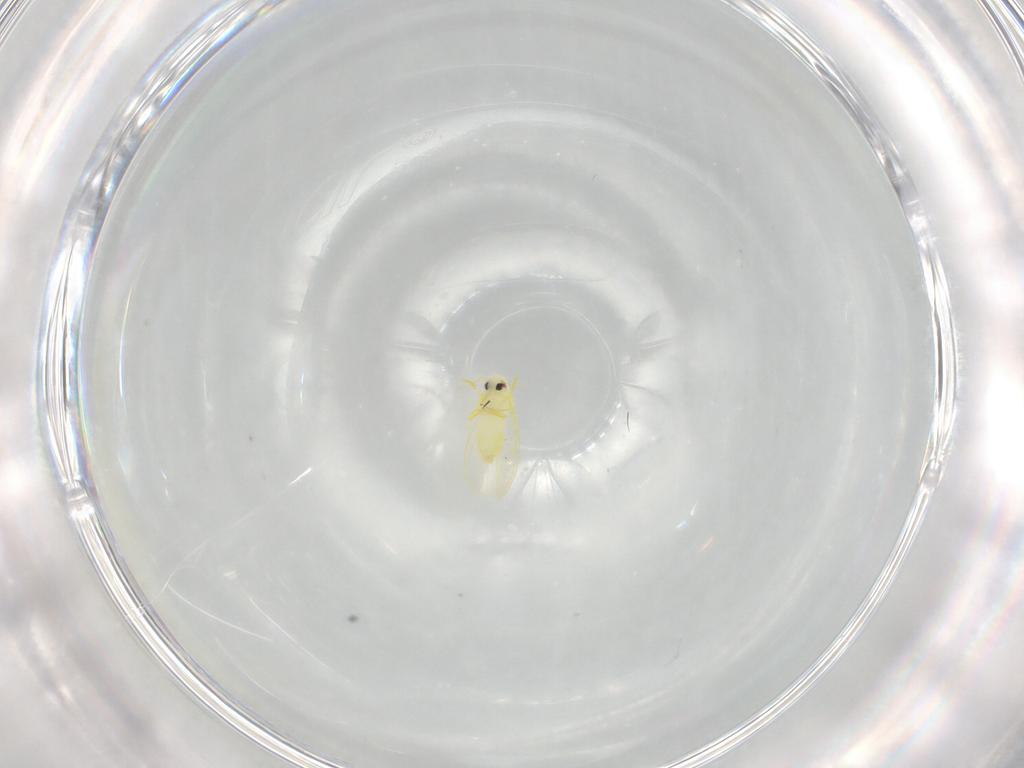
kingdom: Animalia
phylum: Arthropoda
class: Insecta
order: Hemiptera
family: Aleyrodidae
